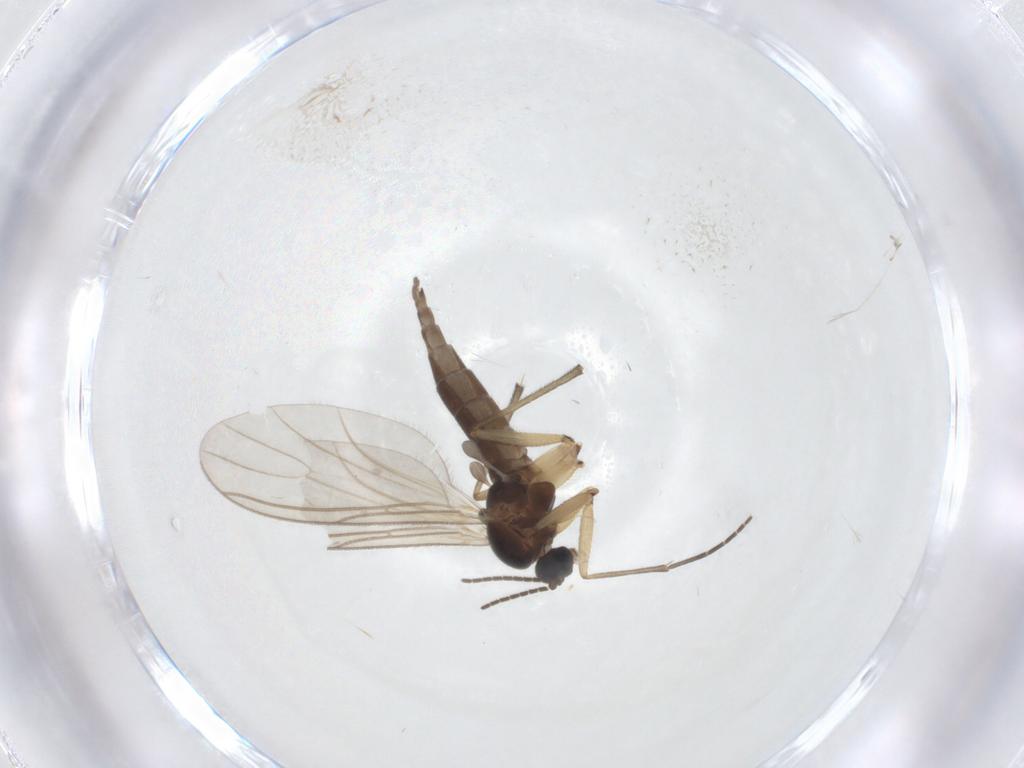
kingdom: Animalia
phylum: Arthropoda
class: Insecta
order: Diptera
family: Sciaridae
